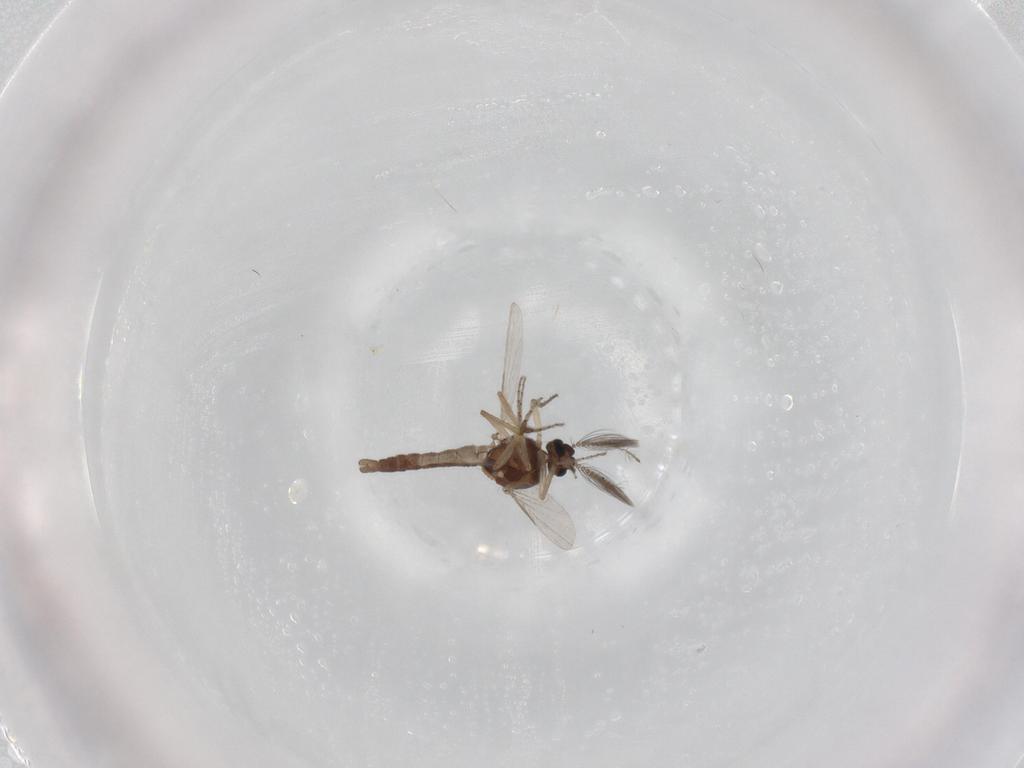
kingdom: Animalia
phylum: Arthropoda
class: Insecta
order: Diptera
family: Ceratopogonidae
